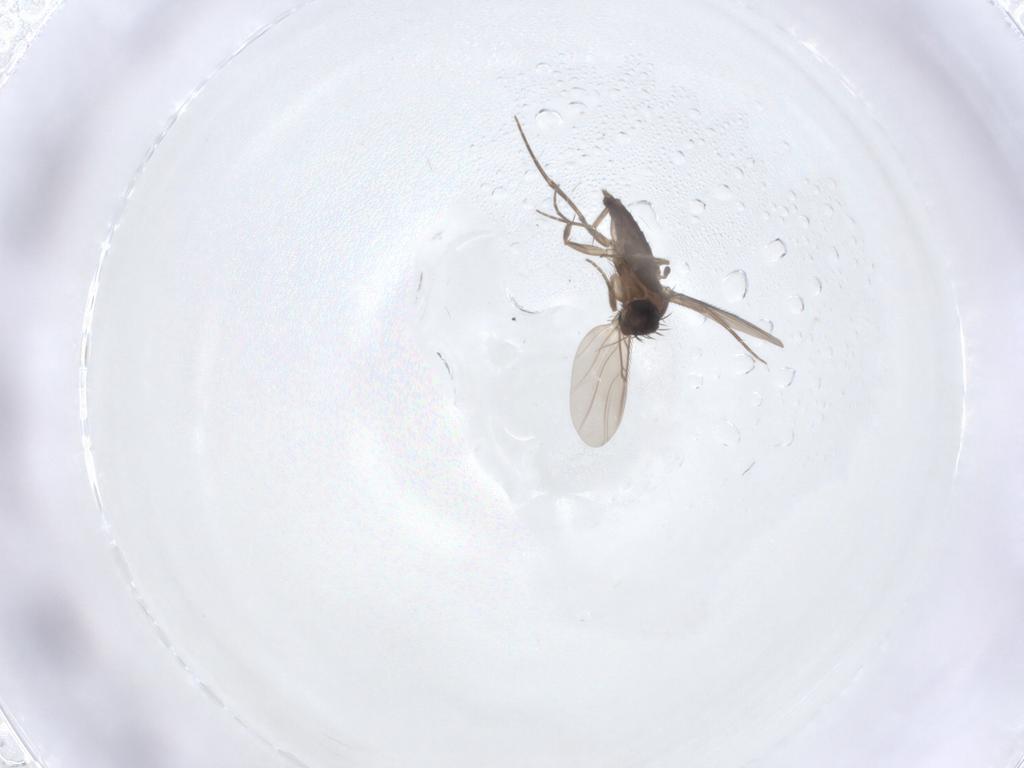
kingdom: Animalia
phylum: Arthropoda
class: Insecta
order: Diptera
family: Phoridae
